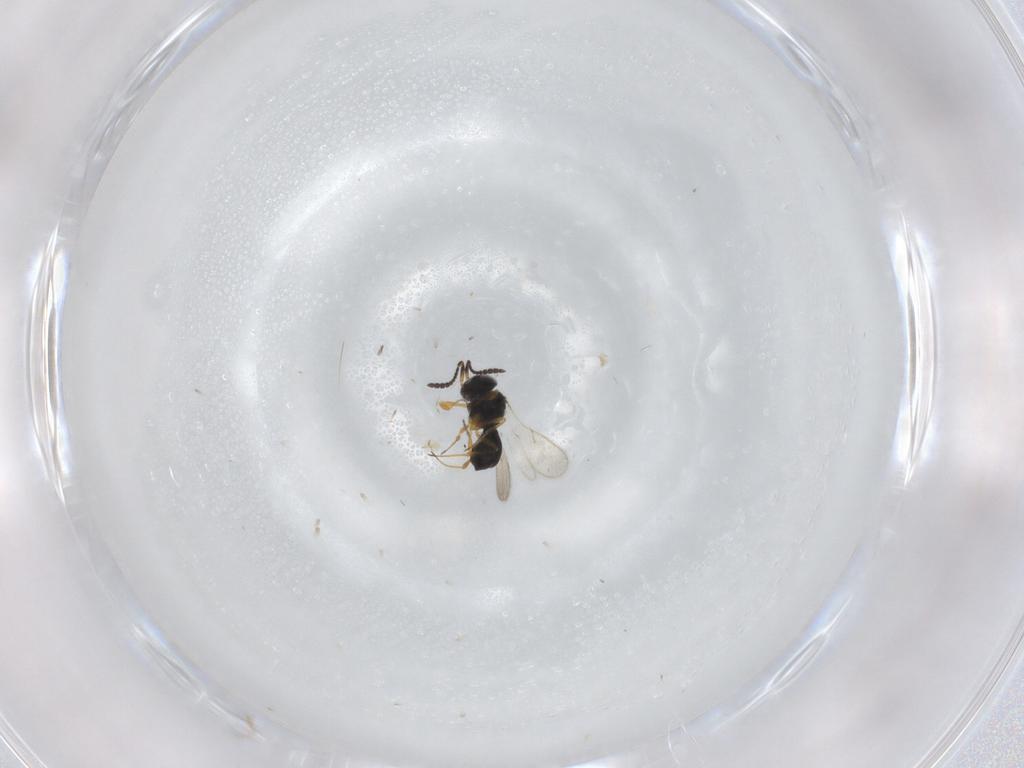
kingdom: Animalia
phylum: Arthropoda
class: Insecta
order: Hymenoptera
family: Scelionidae
